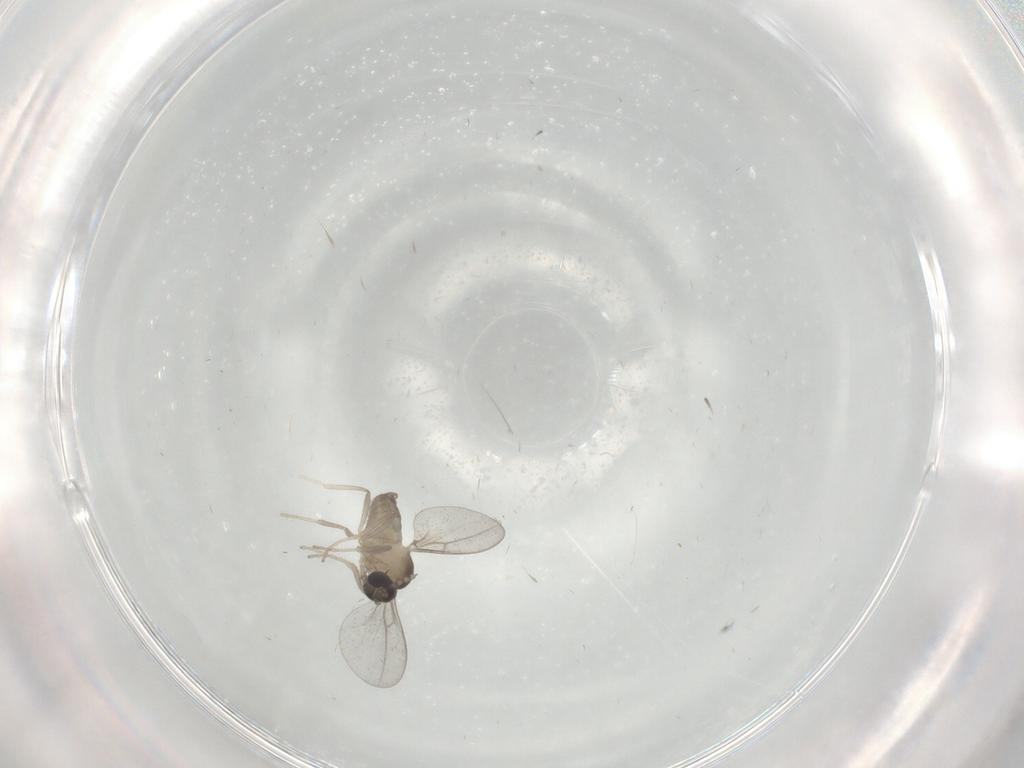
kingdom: Animalia
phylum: Arthropoda
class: Insecta
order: Diptera
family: Cecidomyiidae
